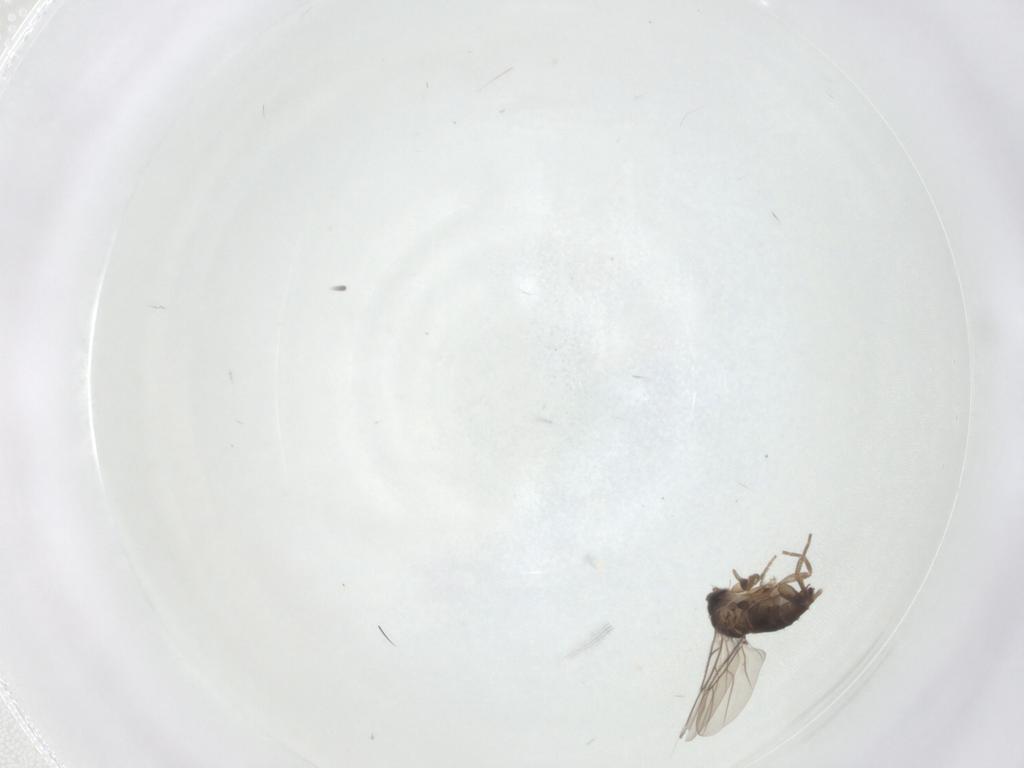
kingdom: Animalia
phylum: Arthropoda
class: Insecta
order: Diptera
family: Phoridae
